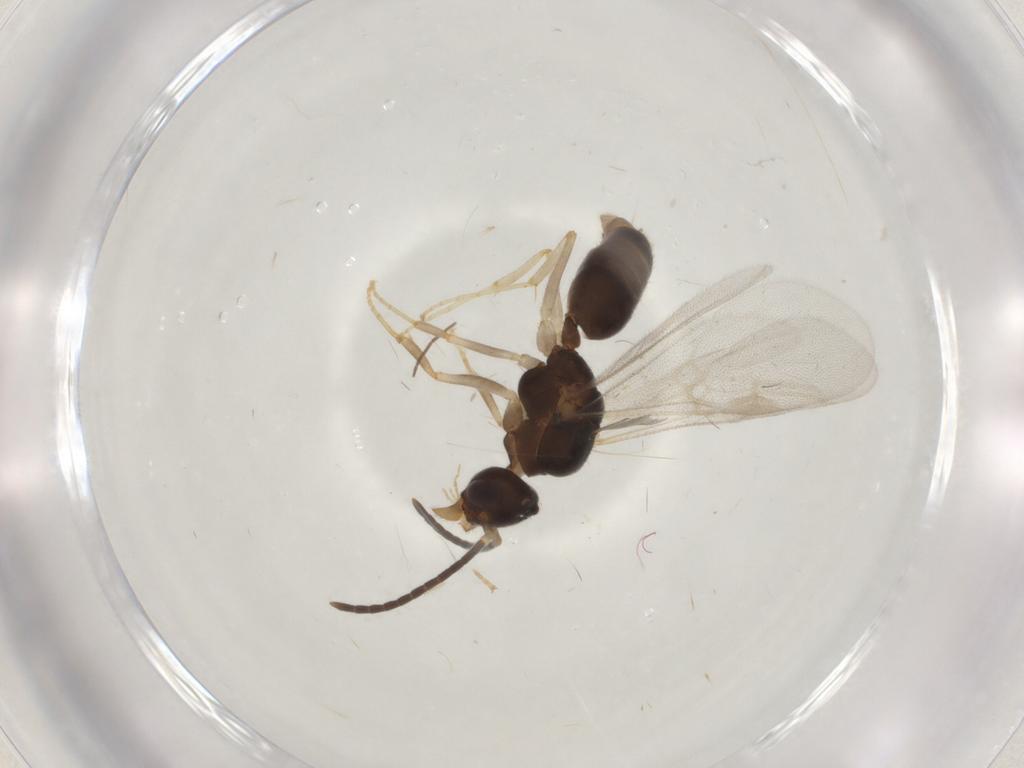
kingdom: Animalia
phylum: Arthropoda
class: Insecta
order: Hymenoptera
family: Formicidae
